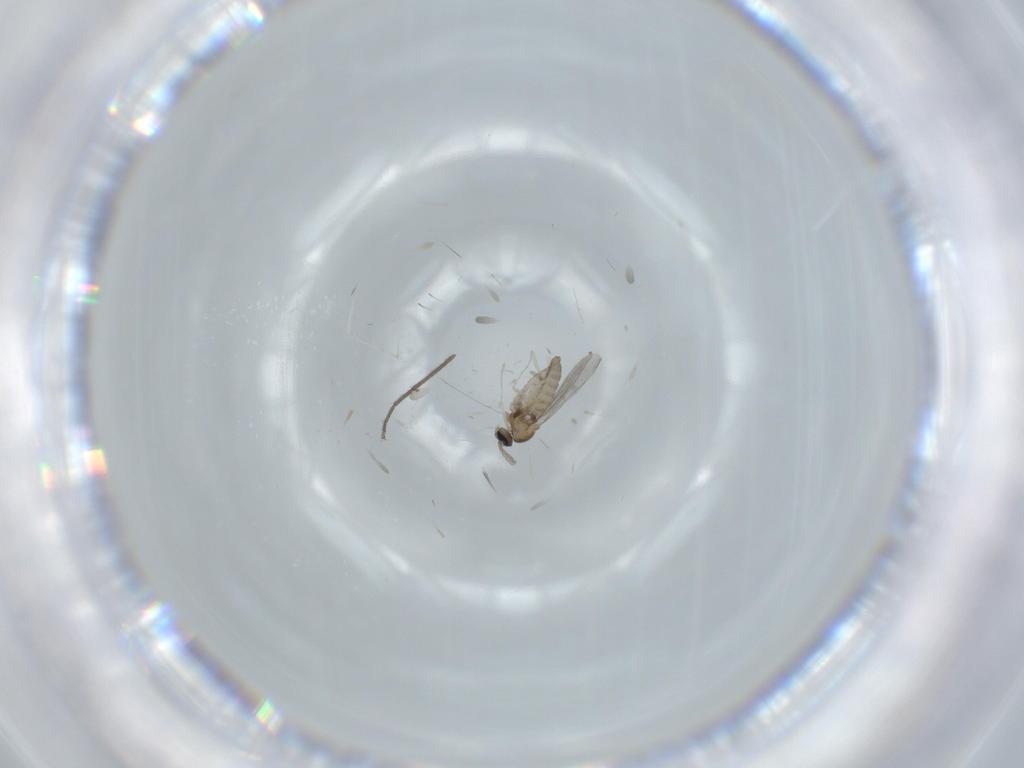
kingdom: Animalia
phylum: Arthropoda
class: Insecta
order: Diptera
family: Cecidomyiidae
